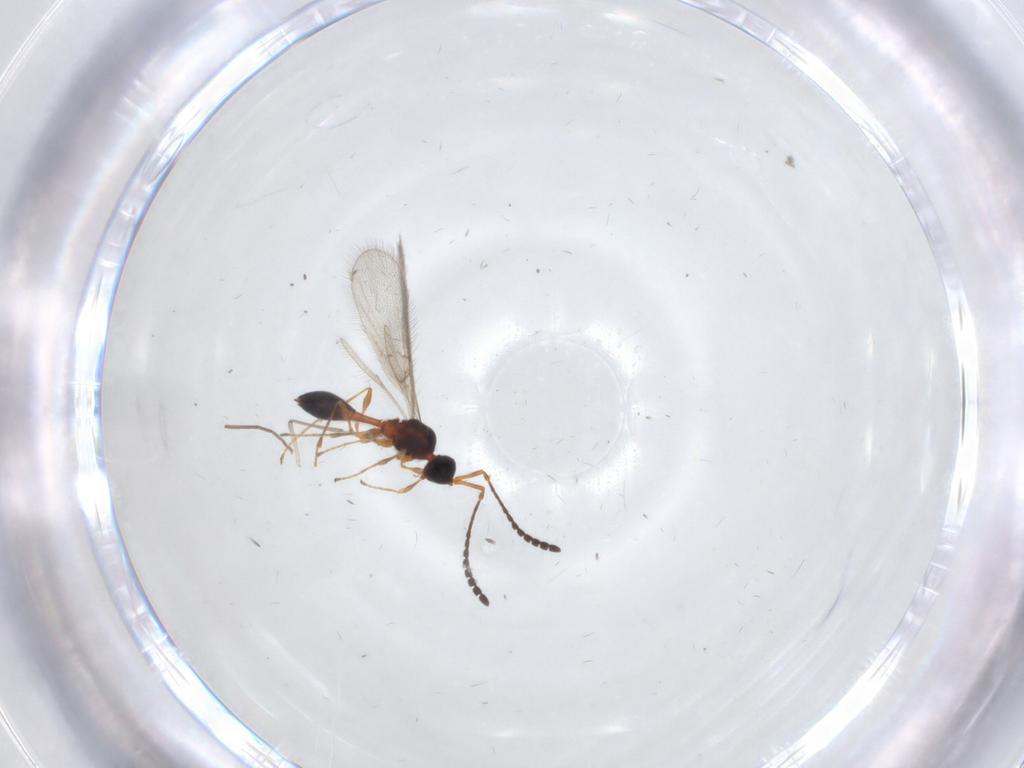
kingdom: Animalia
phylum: Arthropoda
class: Insecta
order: Hymenoptera
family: Diapriidae
